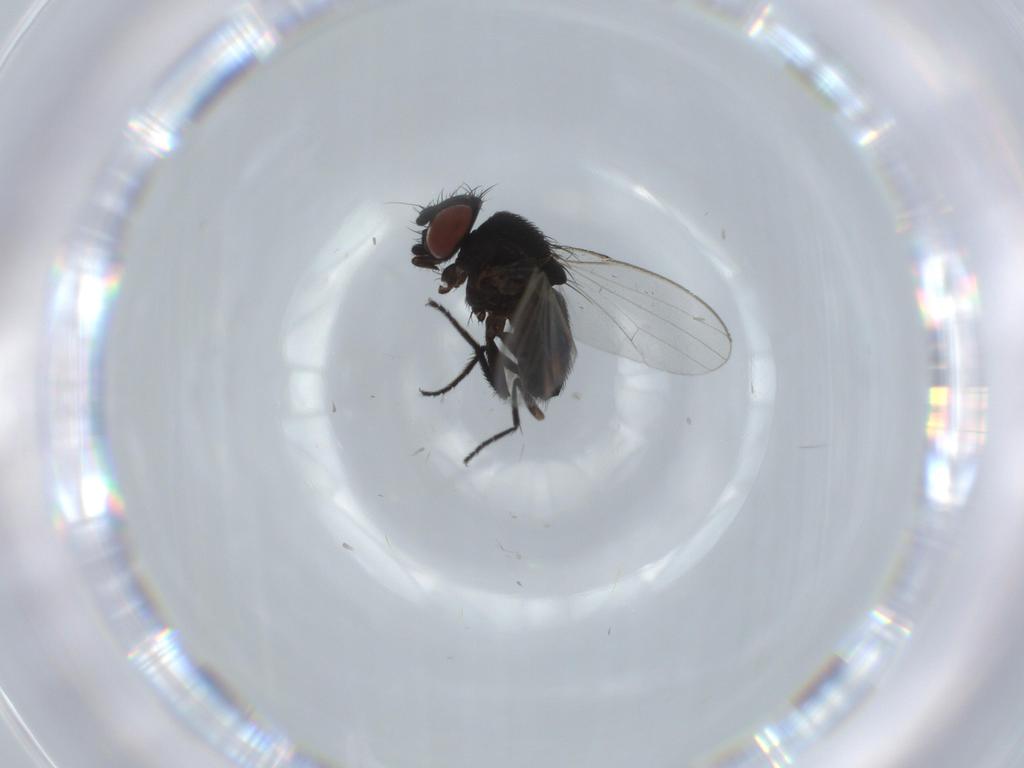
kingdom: Animalia
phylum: Arthropoda
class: Insecta
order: Diptera
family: Milichiidae
